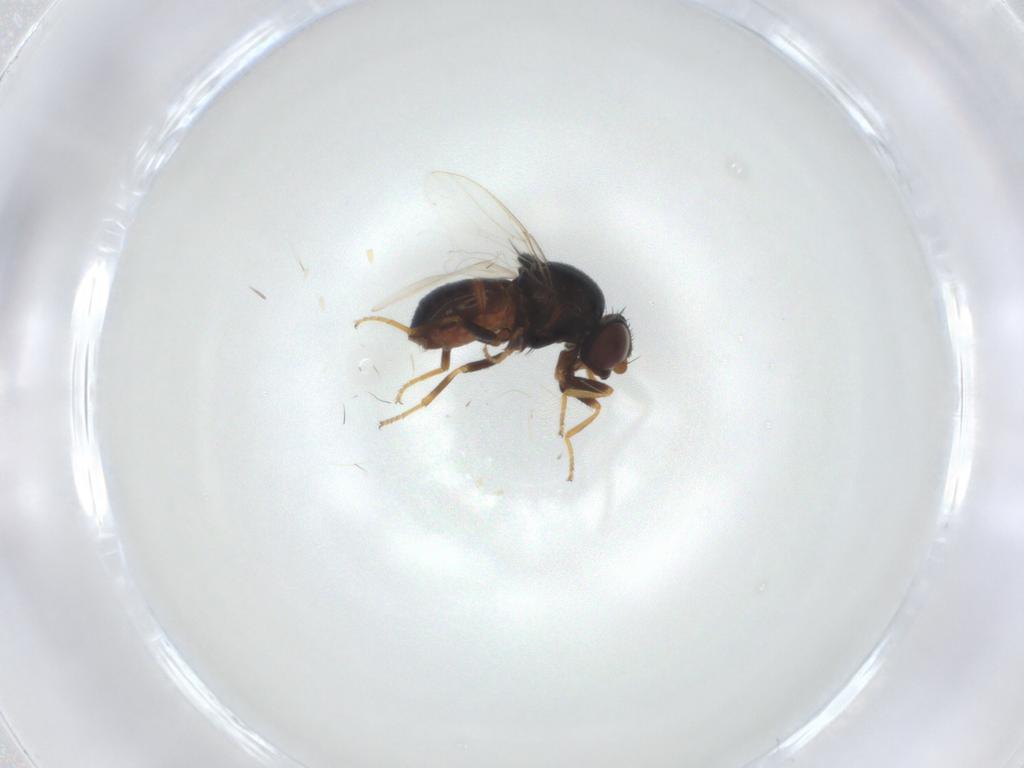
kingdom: Animalia
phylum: Arthropoda
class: Insecta
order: Diptera
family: Chloropidae
